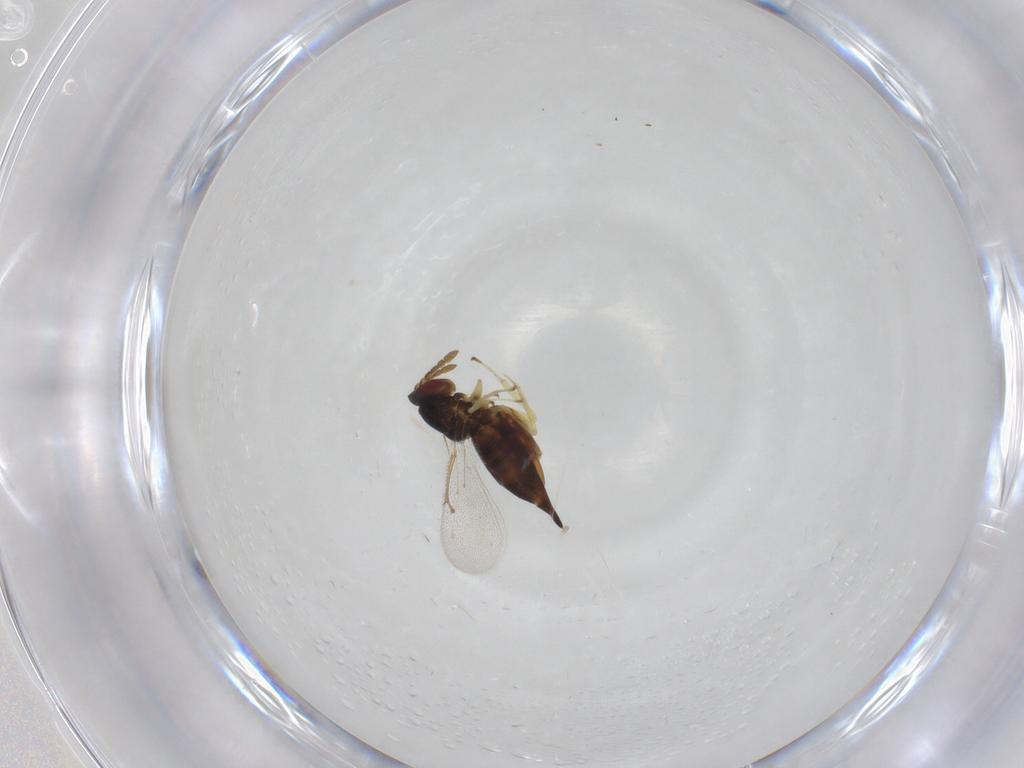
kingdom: Animalia
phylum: Arthropoda
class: Insecta
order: Hymenoptera
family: Eulophidae
